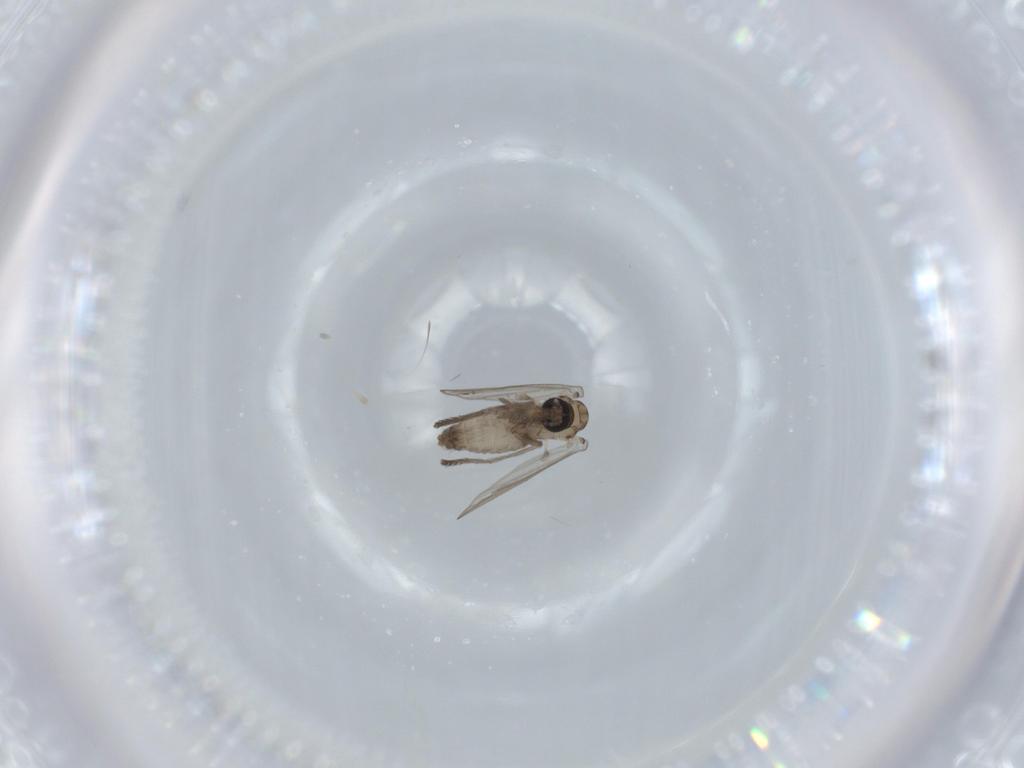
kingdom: Animalia
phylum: Arthropoda
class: Insecta
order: Diptera
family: Psychodidae
